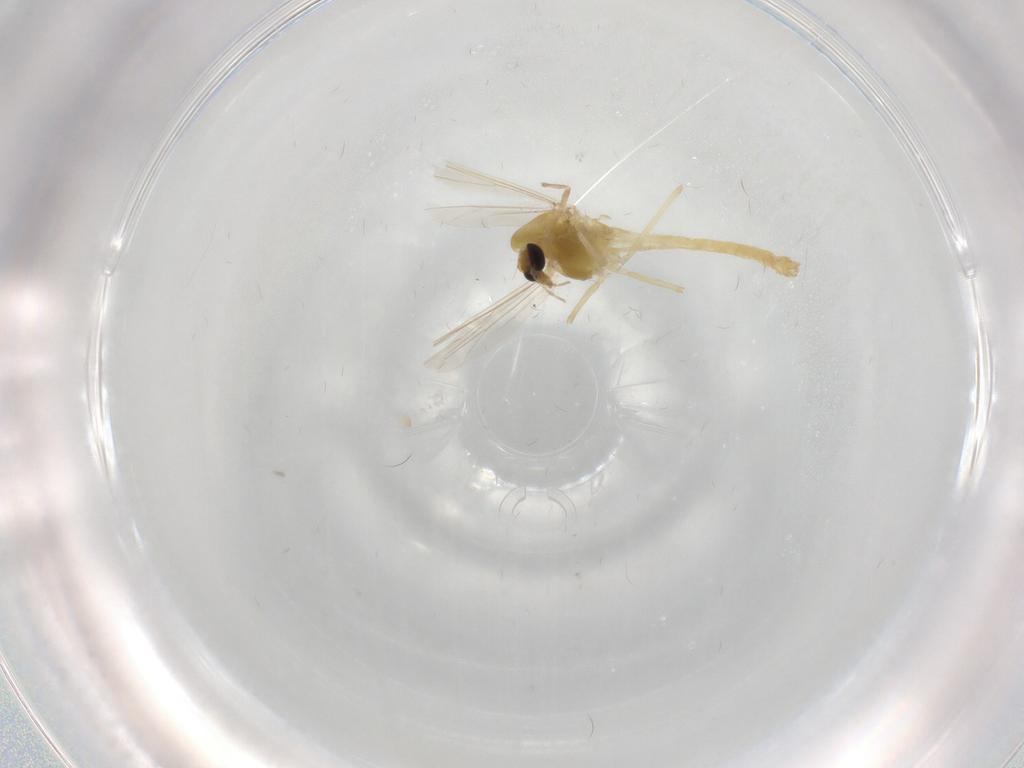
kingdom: Animalia
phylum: Arthropoda
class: Insecta
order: Diptera
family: Chironomidae
